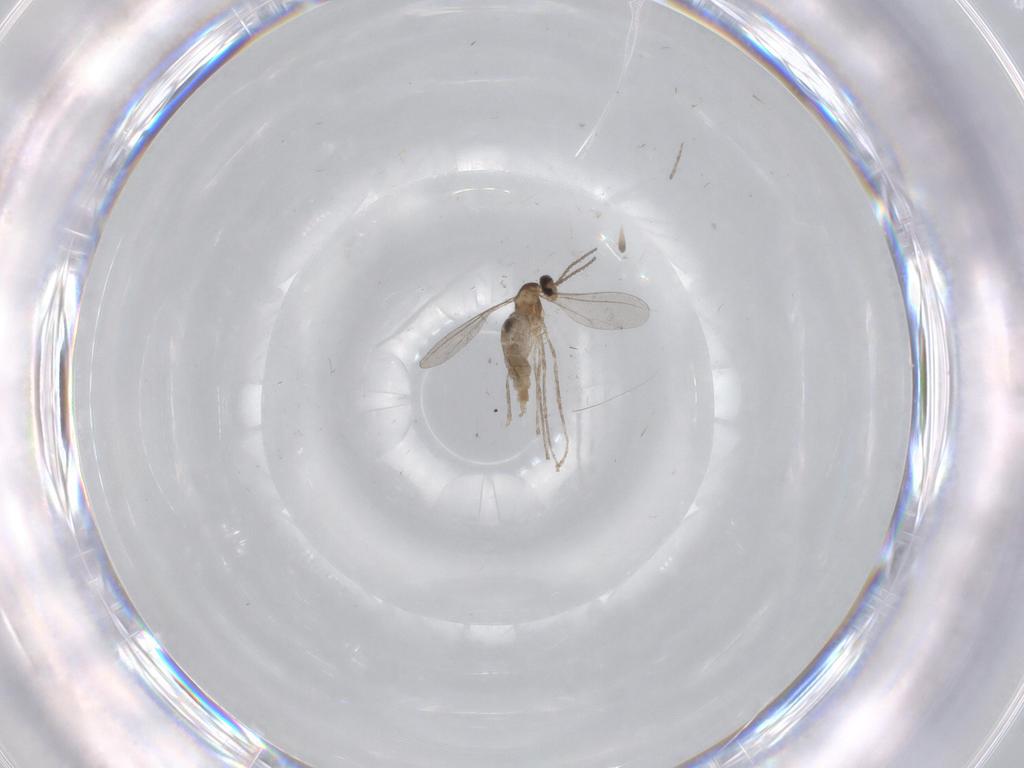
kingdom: Animalia
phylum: Arthropoda
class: Insecta
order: Diptera
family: Cecidomyiidae
